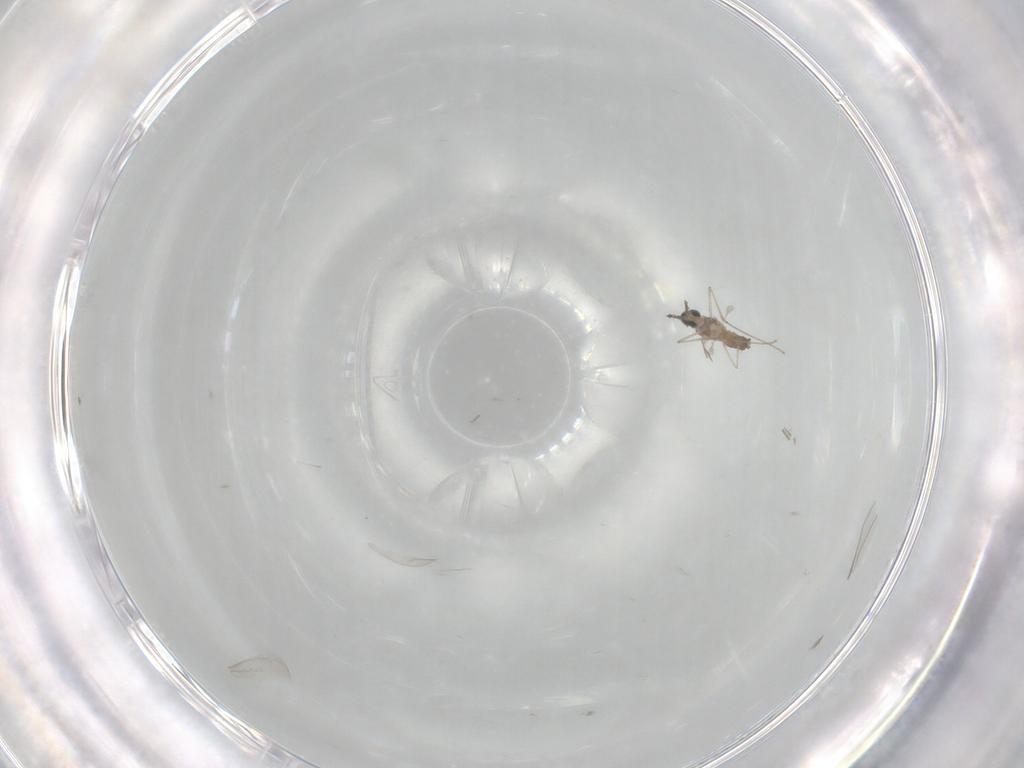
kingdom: Animalia
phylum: Arthropoda
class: Insecta
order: Diptera
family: Cecidomyiidae
